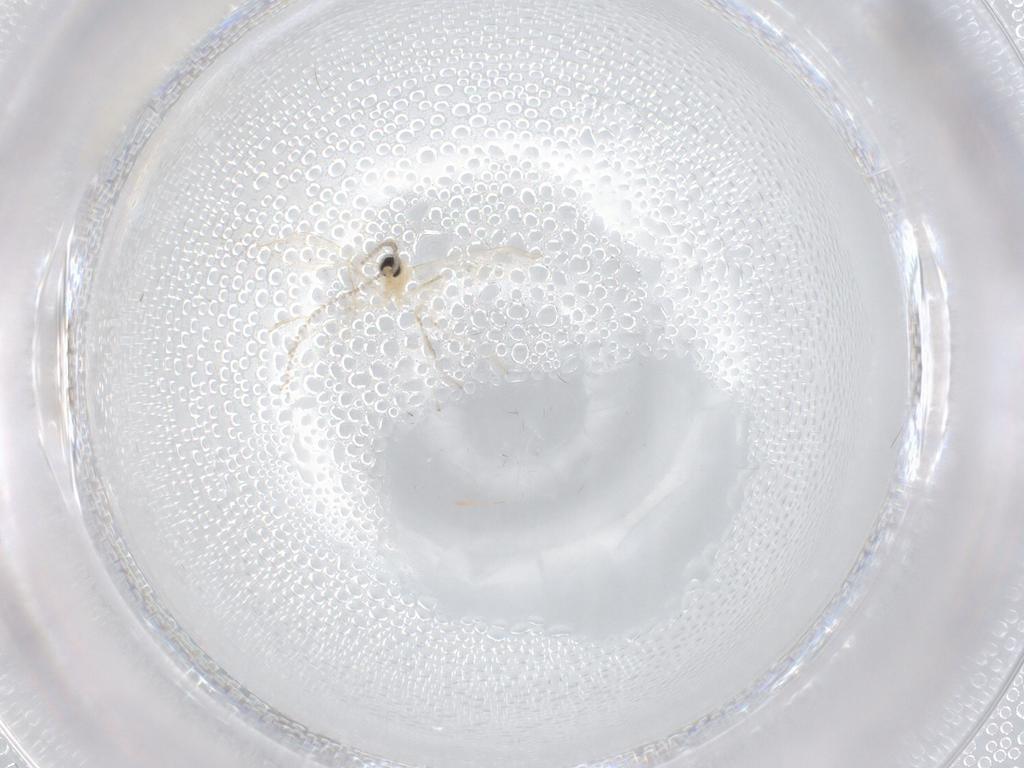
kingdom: Animalia
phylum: Arthropoda
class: Insecta
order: Diptera
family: Phoridae
